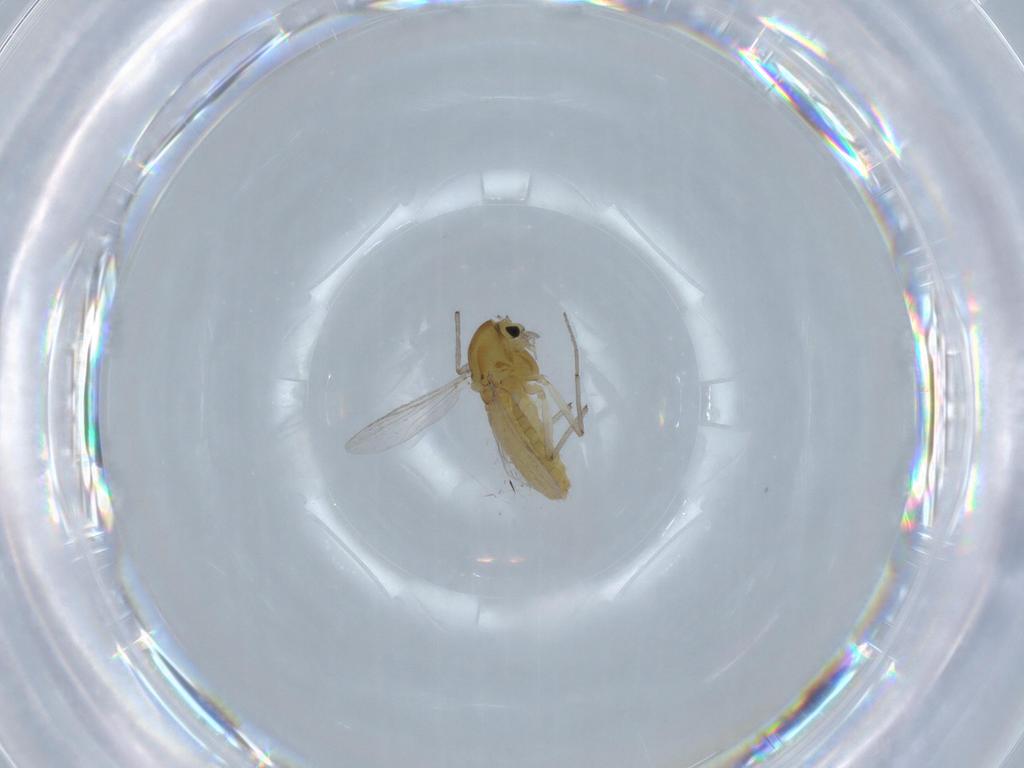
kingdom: Animalia
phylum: Arthropoda
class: Insecta
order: Diptera
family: Chironomidae
